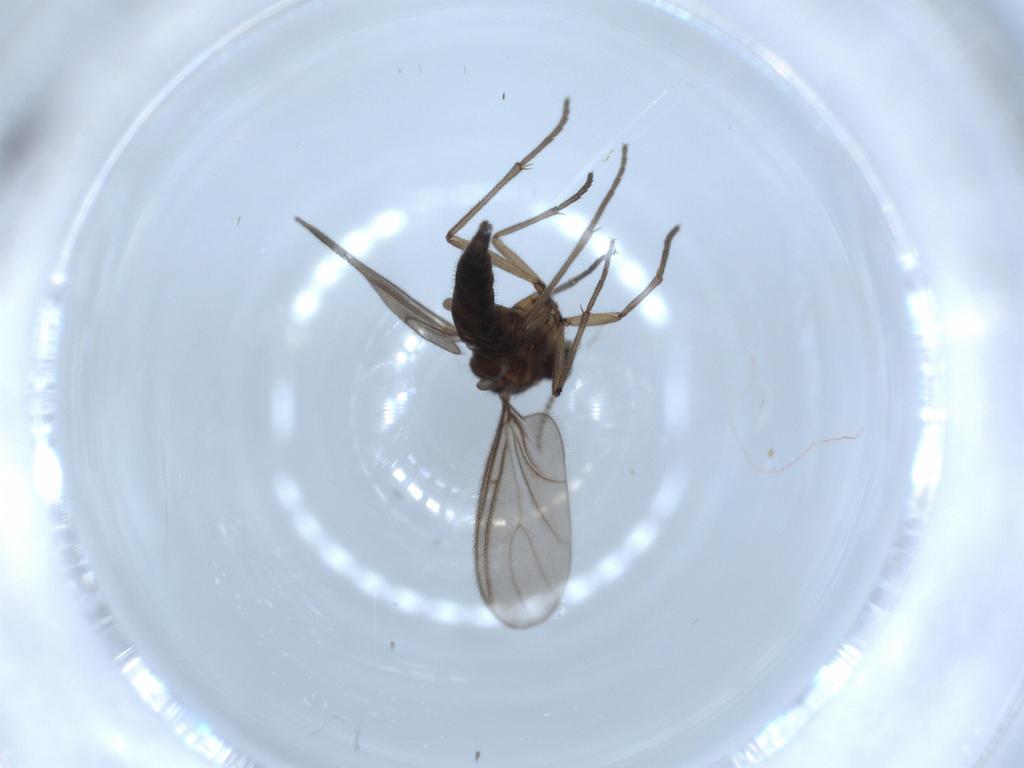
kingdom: Animalia
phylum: Arthropoda
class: Insecta
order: Diptera
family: Sciaridae
